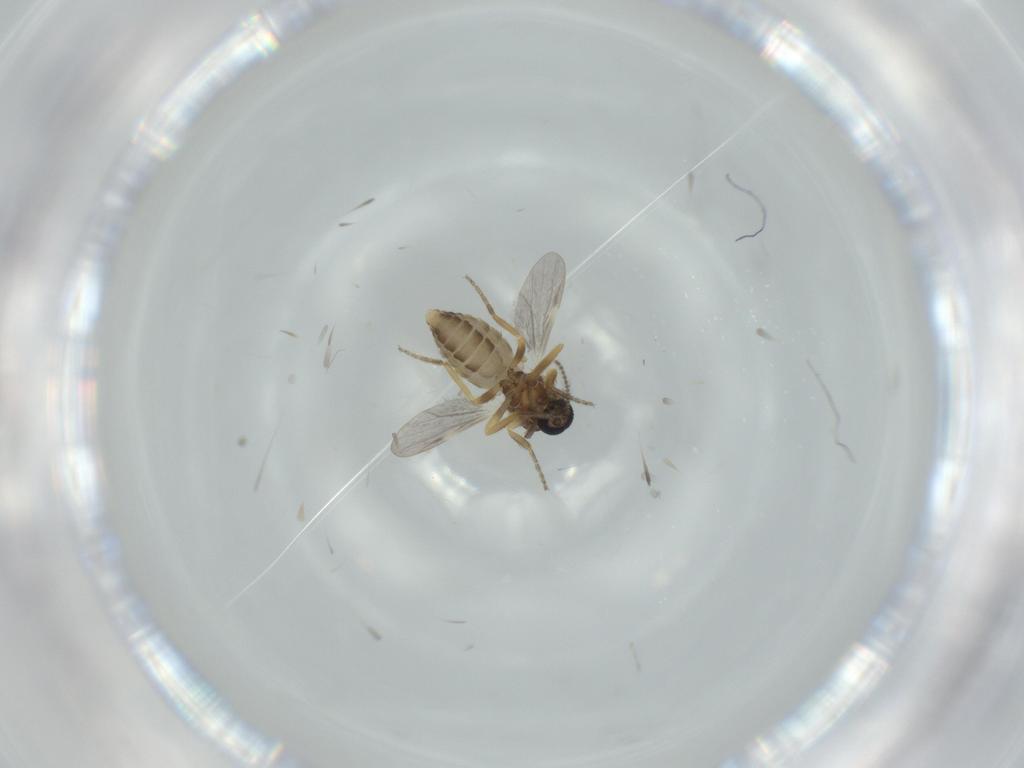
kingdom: Animalia
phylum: Arthropoda
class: Insecta
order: Diptera
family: Ceratopogonidae
